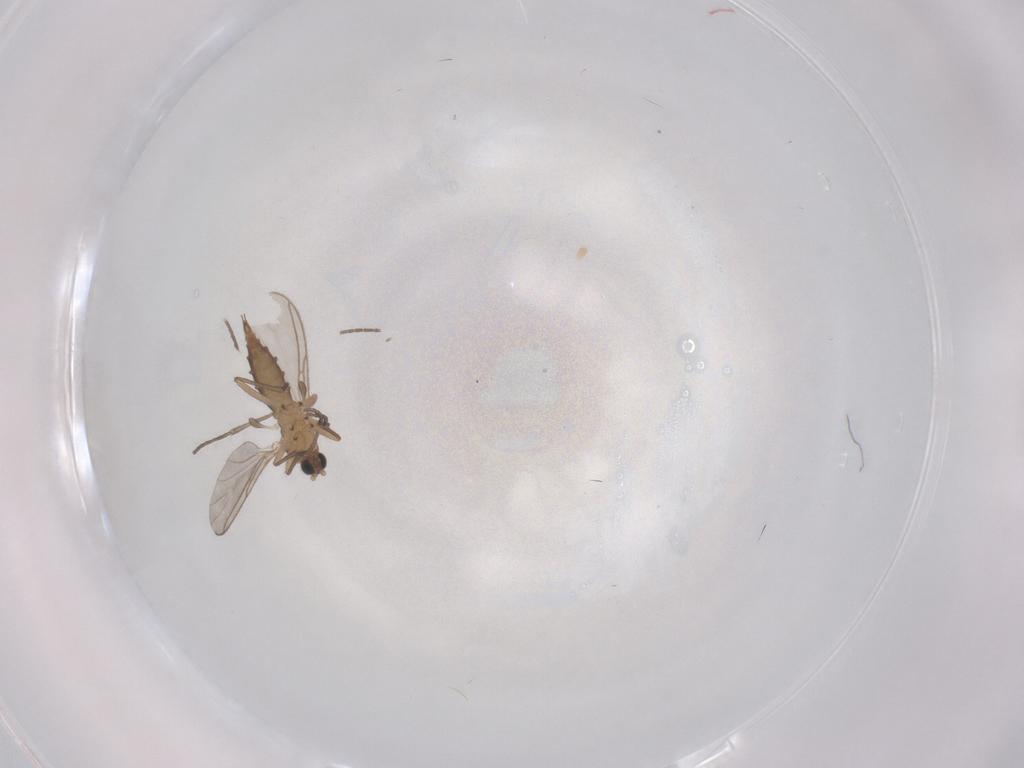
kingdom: Animalia
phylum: Arthropoda
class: Insecta
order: Diptera
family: Sciaridae
